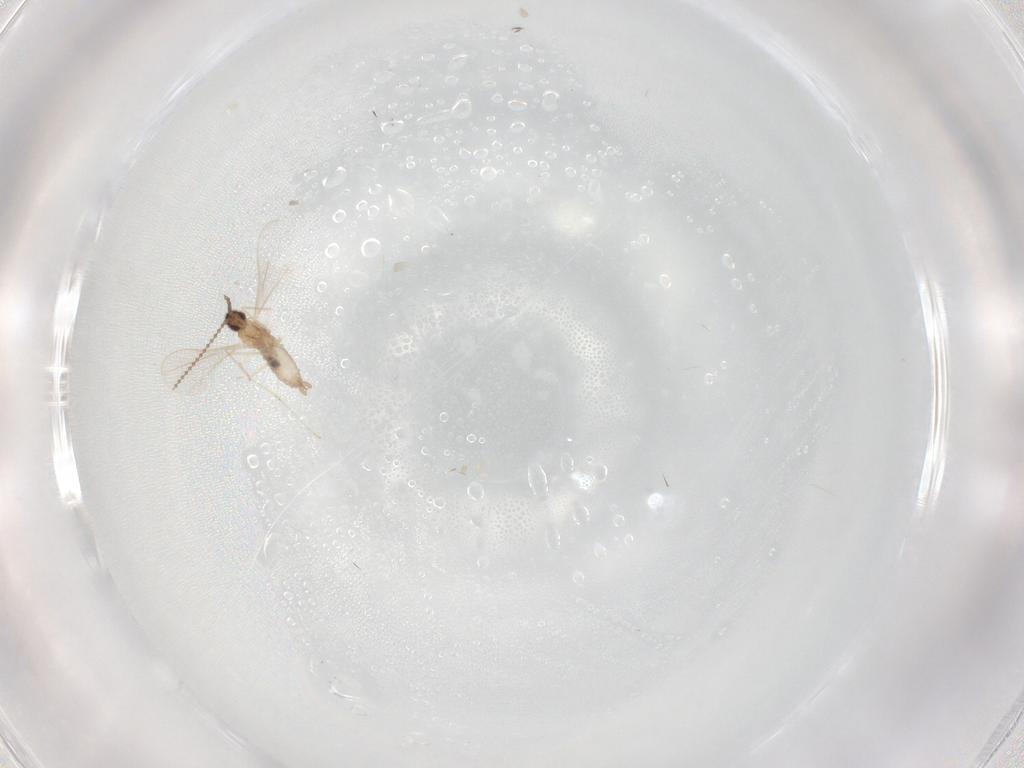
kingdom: Animalia
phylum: Arthropoda
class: Insecta
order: Diptera
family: Cecidomyiidae
